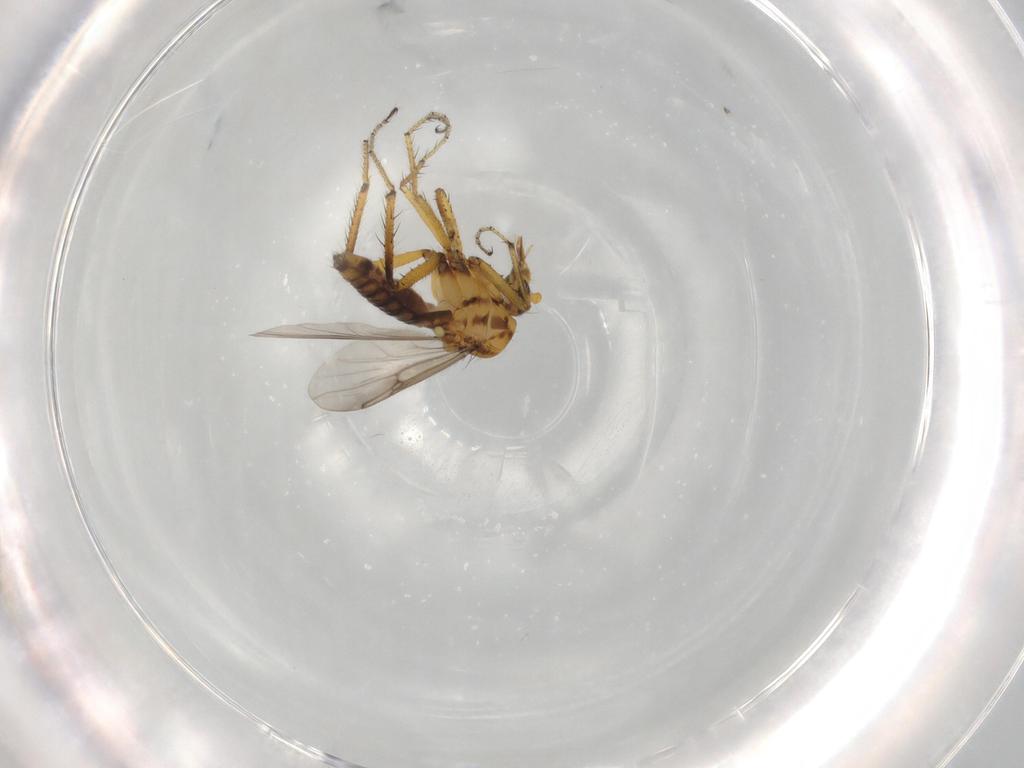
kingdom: Animalia
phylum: Arthropoda
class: Insecta
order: Diptera
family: Ceratopogonidae
